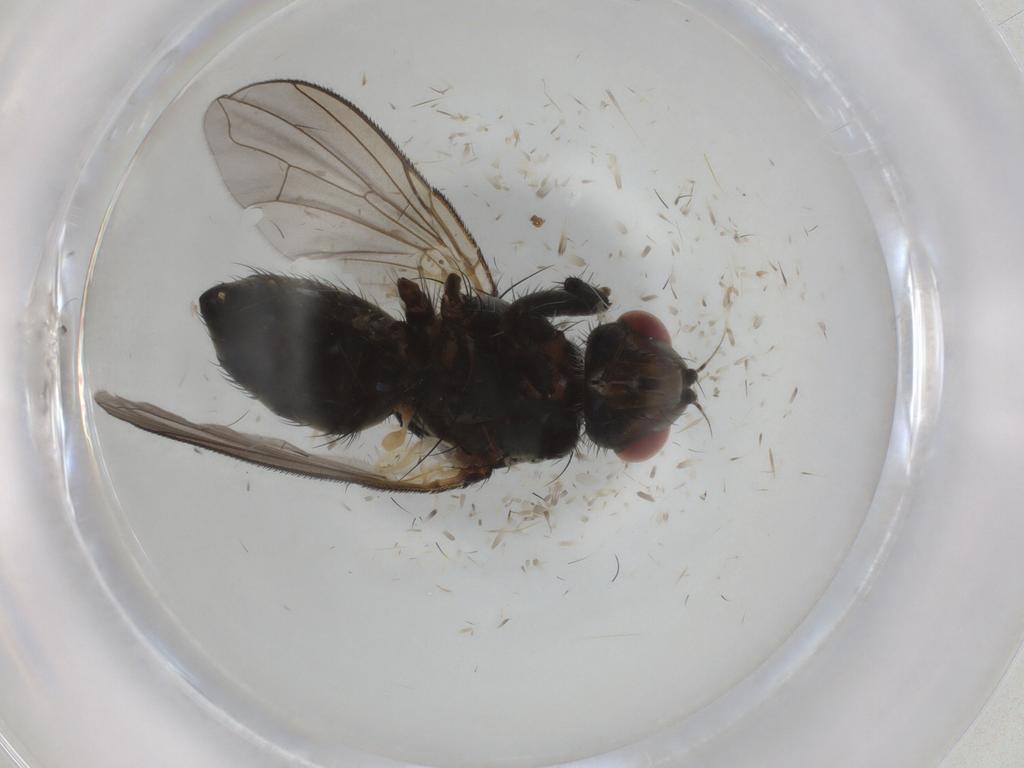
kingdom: Animalia
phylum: Arthropoda
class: Insecta
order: Diptera
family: Tachinidae
